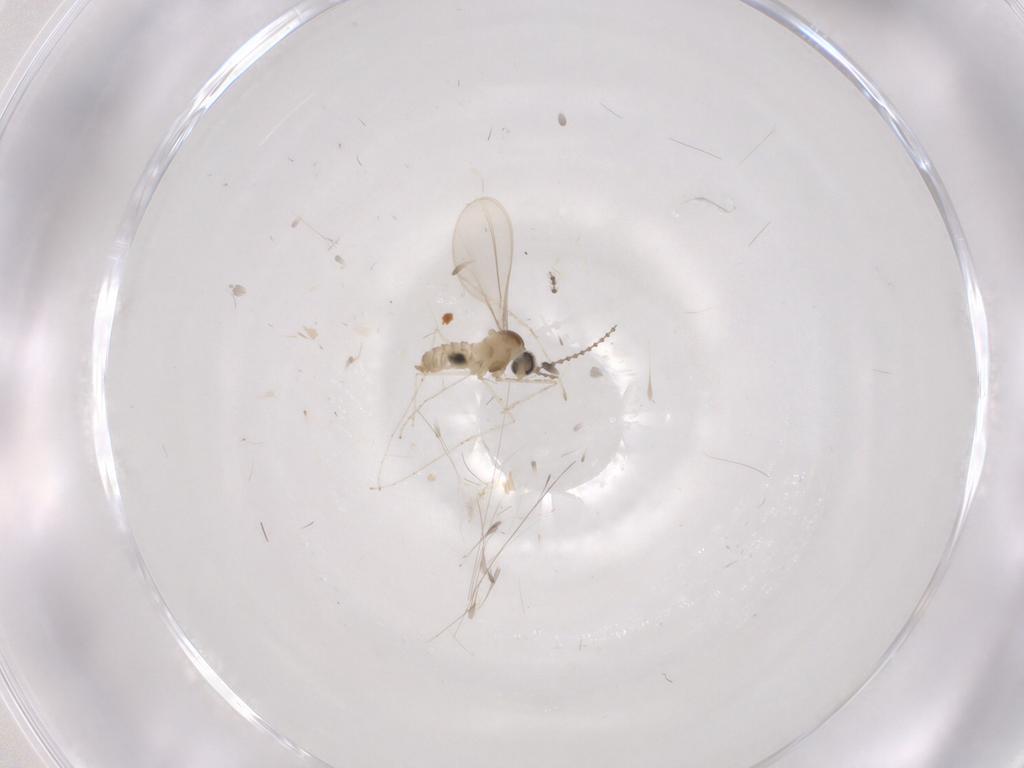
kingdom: Animalia
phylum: Arthropoda
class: Insecta
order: Diptera
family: Cecidomyiidae
